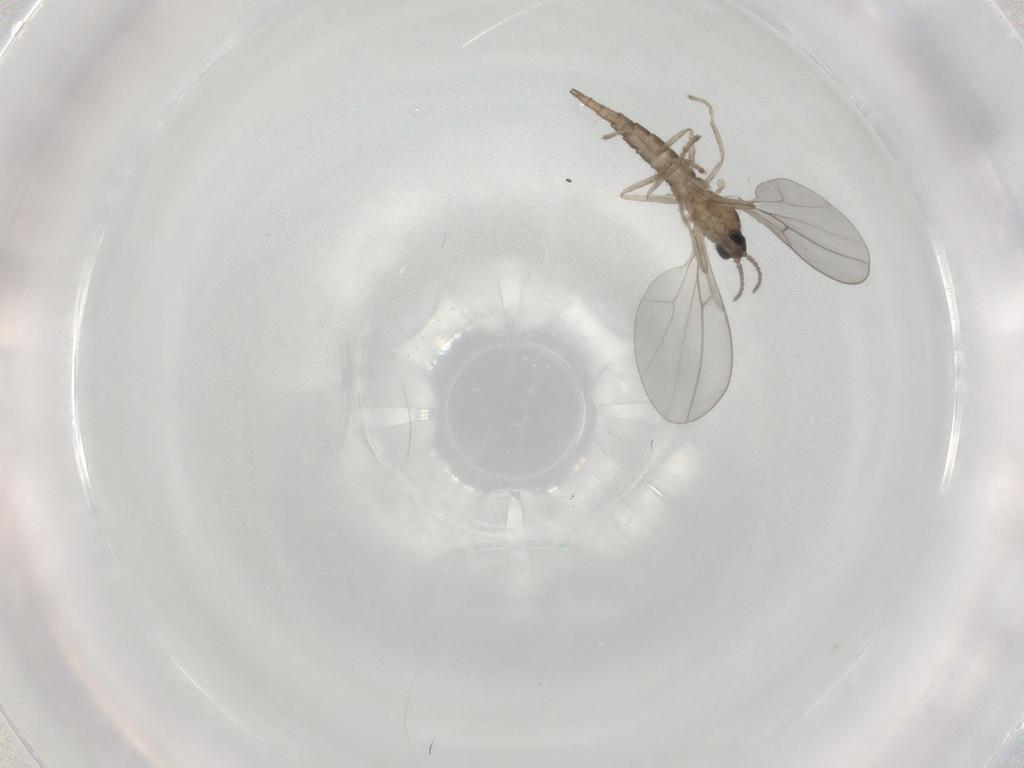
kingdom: Animalia
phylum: Arthropoda
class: Insecta
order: Diptera
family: Cecidomyiidae
